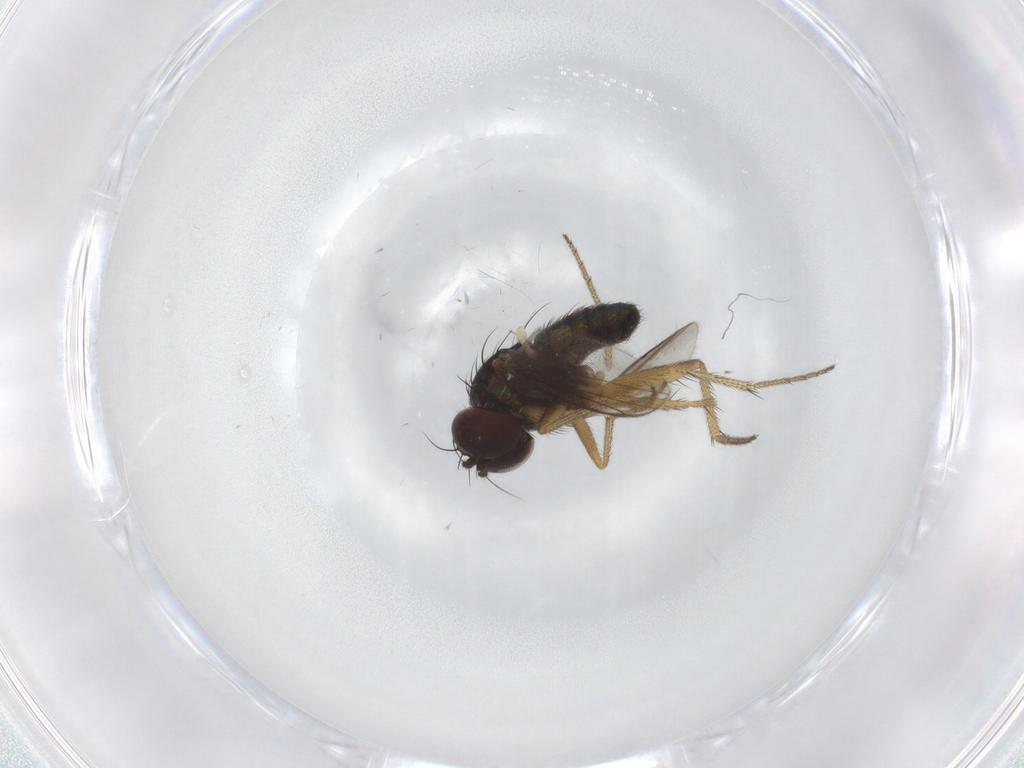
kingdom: Animalia
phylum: Arthropoda
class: Insecta
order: Diptera
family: Dolichopodidae
